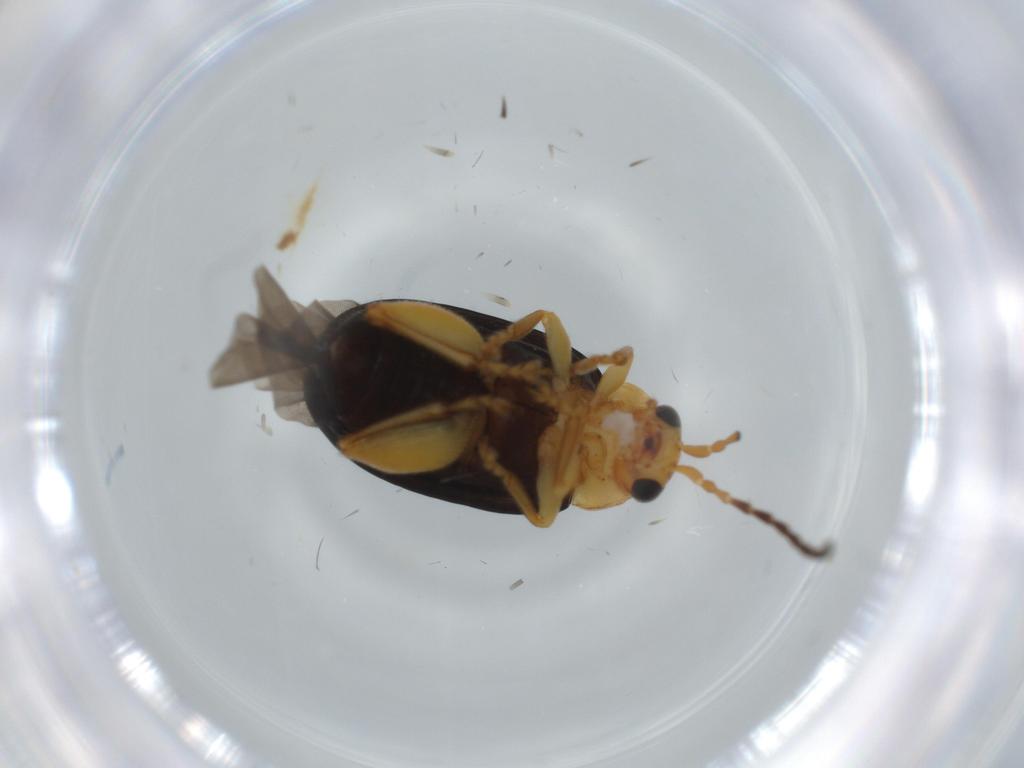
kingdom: Animalia
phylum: Arthropoda
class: Insecta
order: Coleoptera
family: Chrysomelidae
